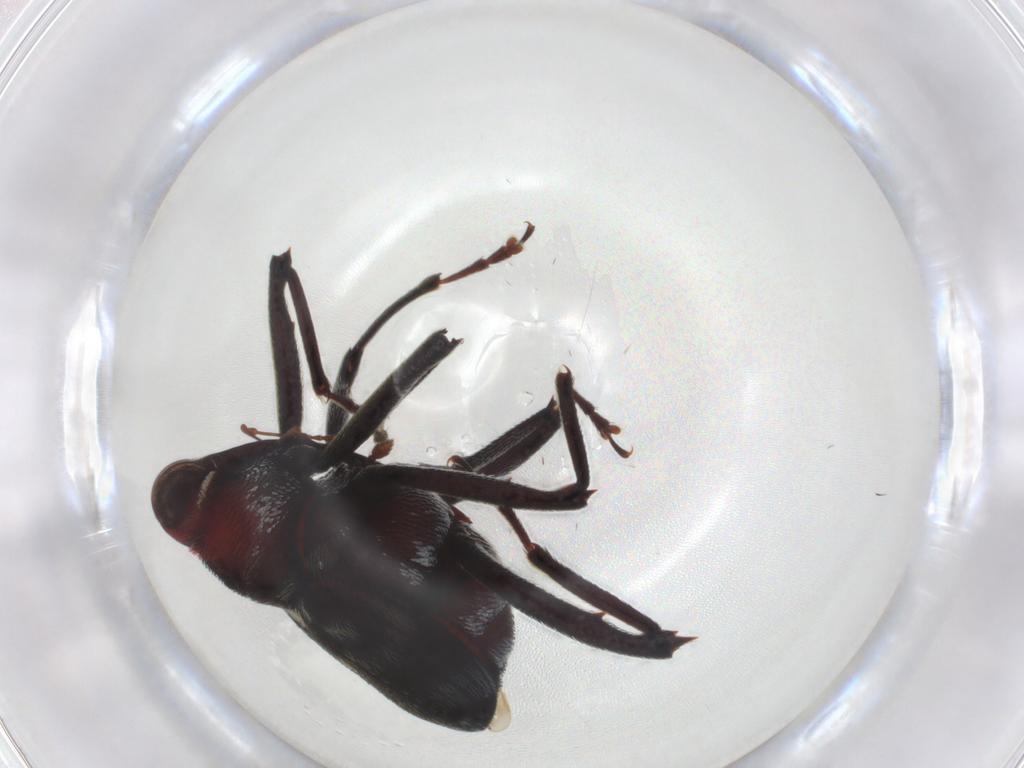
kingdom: Animalia
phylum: Arthropoda
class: Insecta
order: Coleoptera
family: Curculionidae
